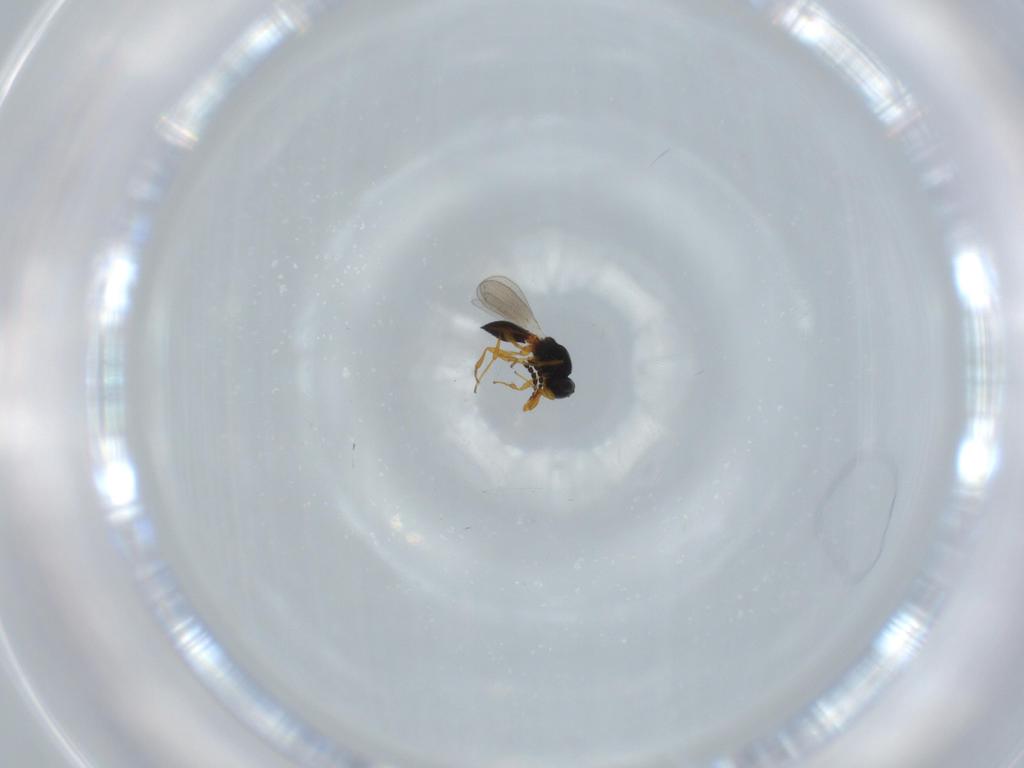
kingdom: Animalia
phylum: Arthropoda
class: Insecta
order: Hymenoptera
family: Platygastridae
